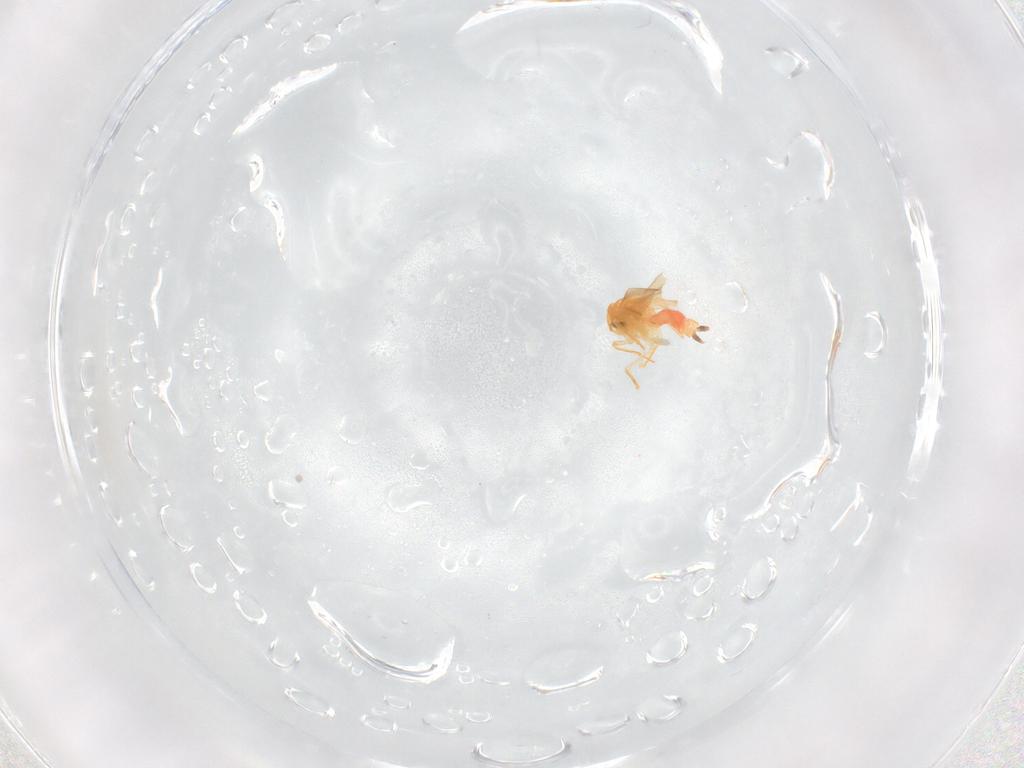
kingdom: Animalia
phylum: Arthropoda
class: Insecta
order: Hemiptera
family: Aleyrodidae
